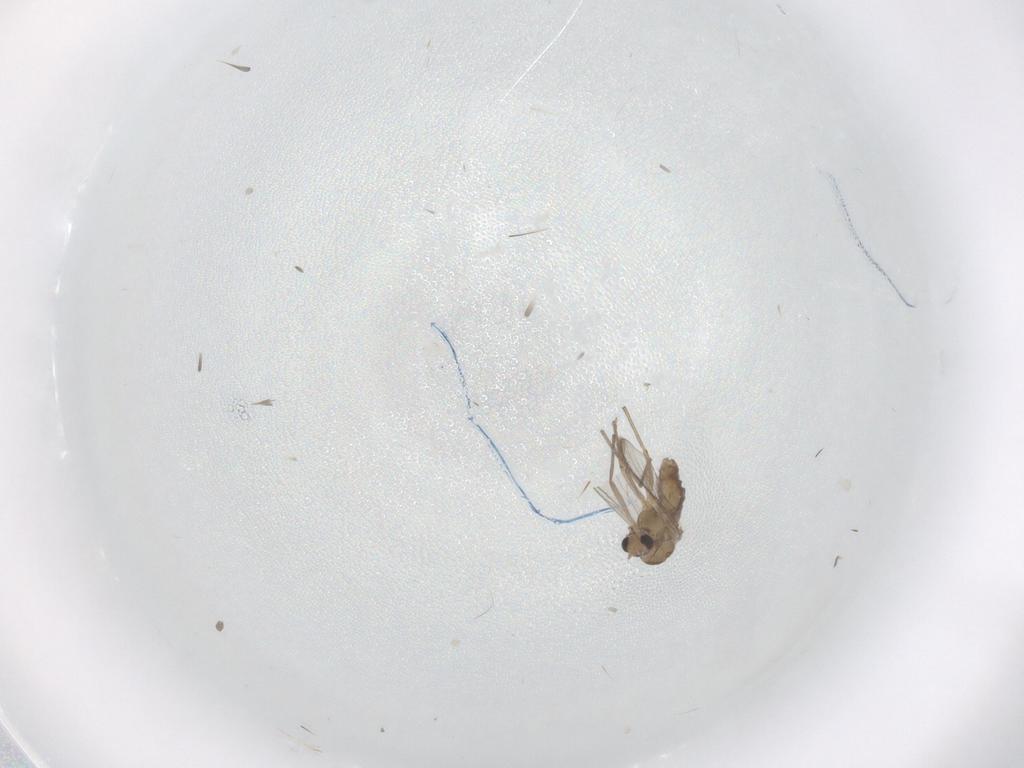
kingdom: Animalia
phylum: Arthropoda
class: Insecta
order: Diptera
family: Chironomidae
